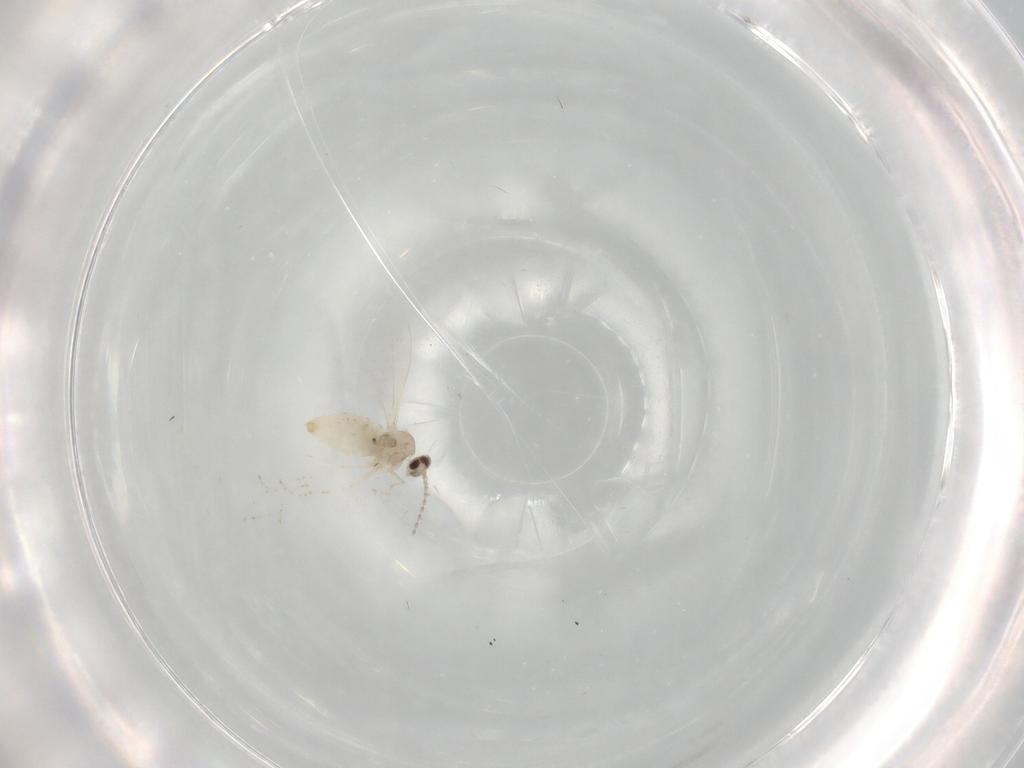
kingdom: Animalia
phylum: Arthropoda
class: Insecta
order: Diptera
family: Cecidomyiidae
